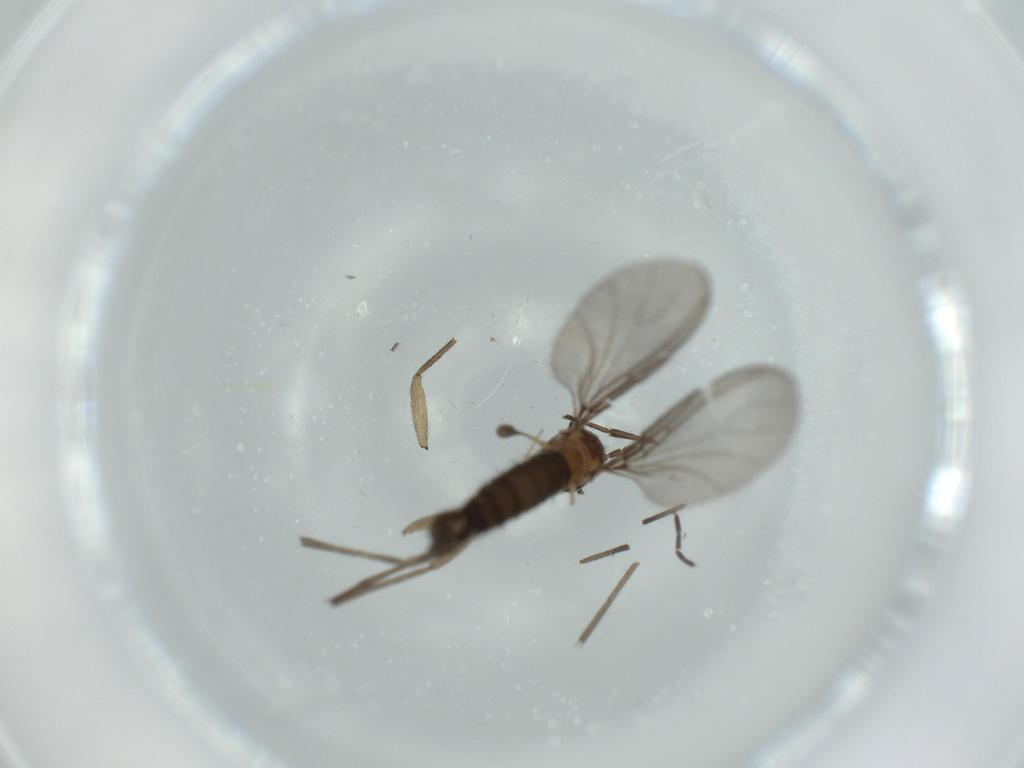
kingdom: Animalia
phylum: Arthropoda
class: Insecta
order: Diptera
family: Sciaridae
